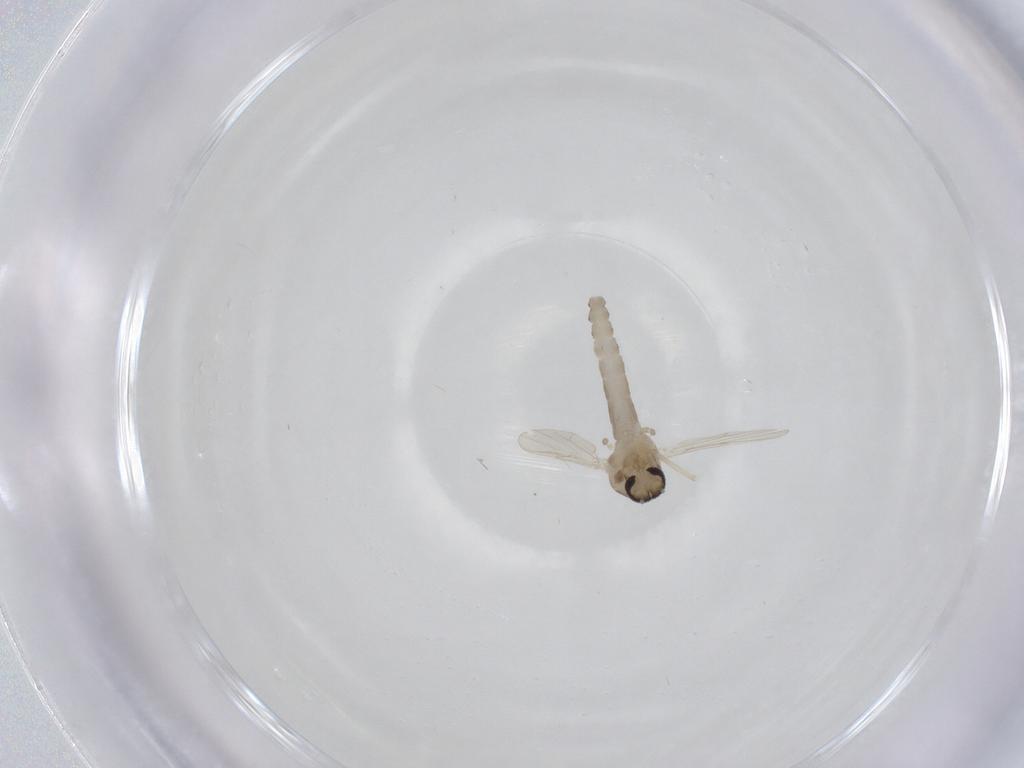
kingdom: Animalia
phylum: Arthropoda
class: Insecta
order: Diptera
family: Ceratopogonidae
